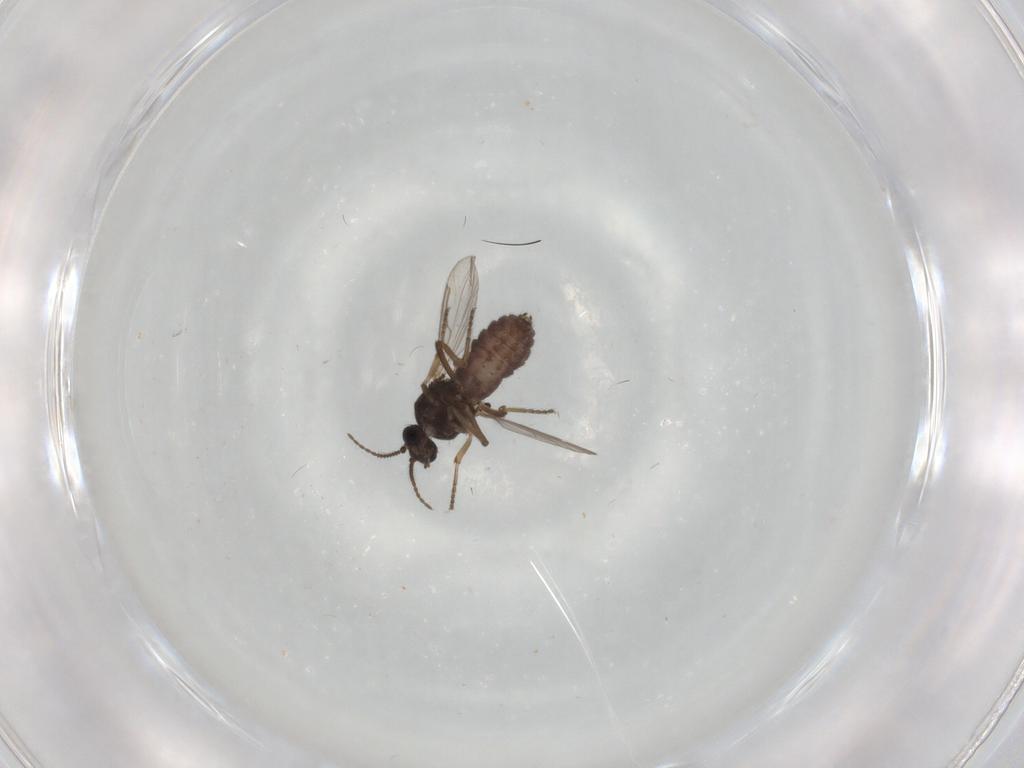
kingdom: Animalia
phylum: Arthropoda
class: Insecta
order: Diptera
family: Ceratopogonidae
